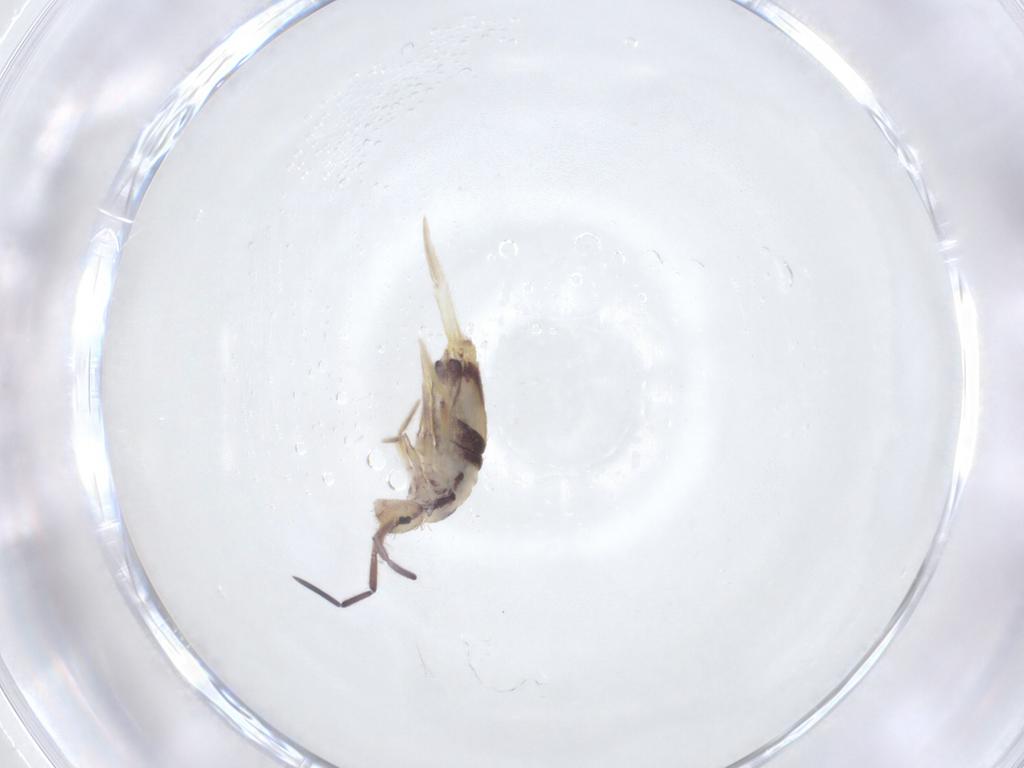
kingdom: Animalia
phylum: Arthropoda
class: Collembola
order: Entomobryomorpha
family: Entomobryidae
